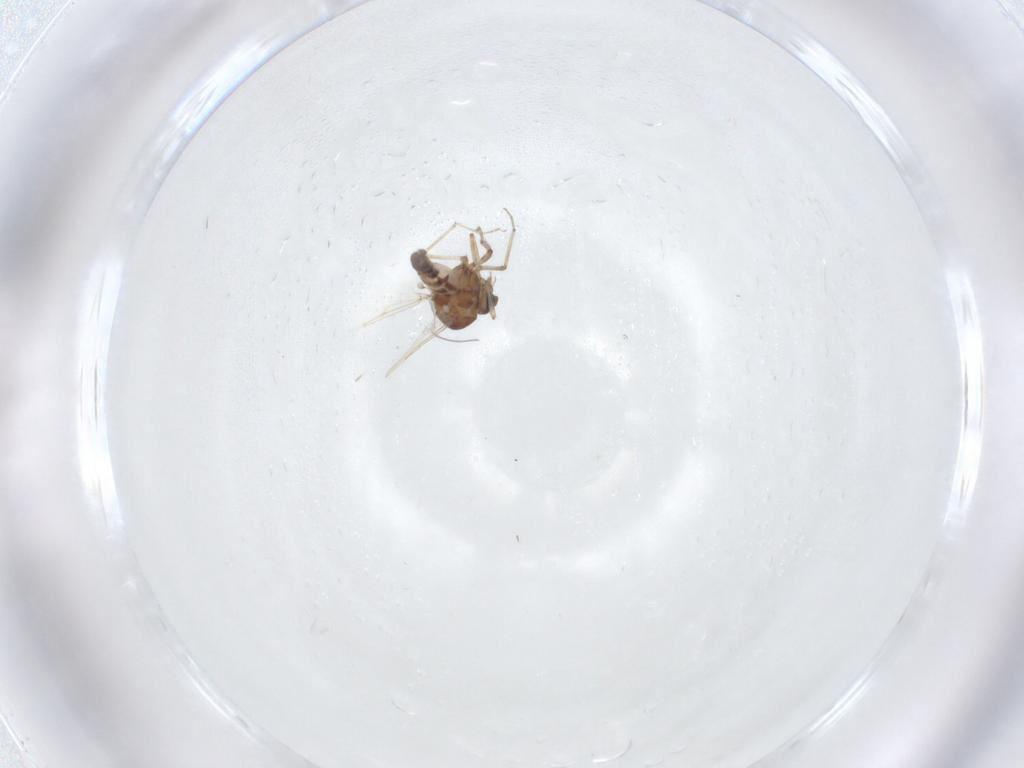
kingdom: Animalia
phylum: Arthropoda
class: Insecta
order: Diptera
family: Ceratopogonidae
